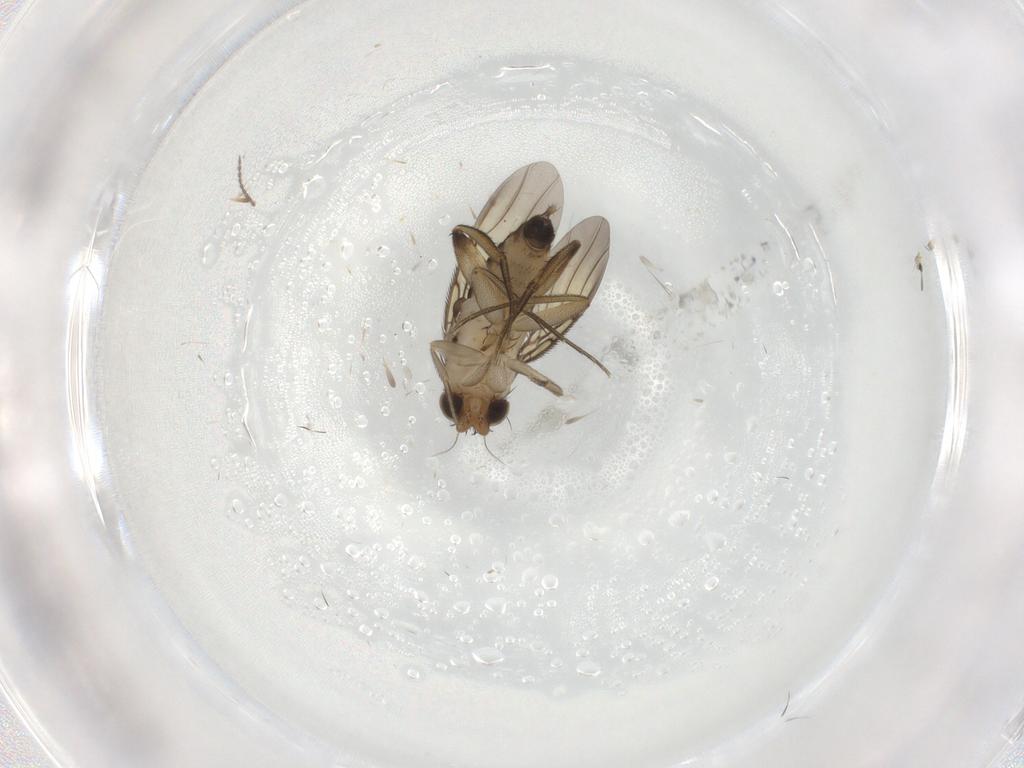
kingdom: Animalia
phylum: Arthropoda
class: Insecta
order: Diptera
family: Phoridae
